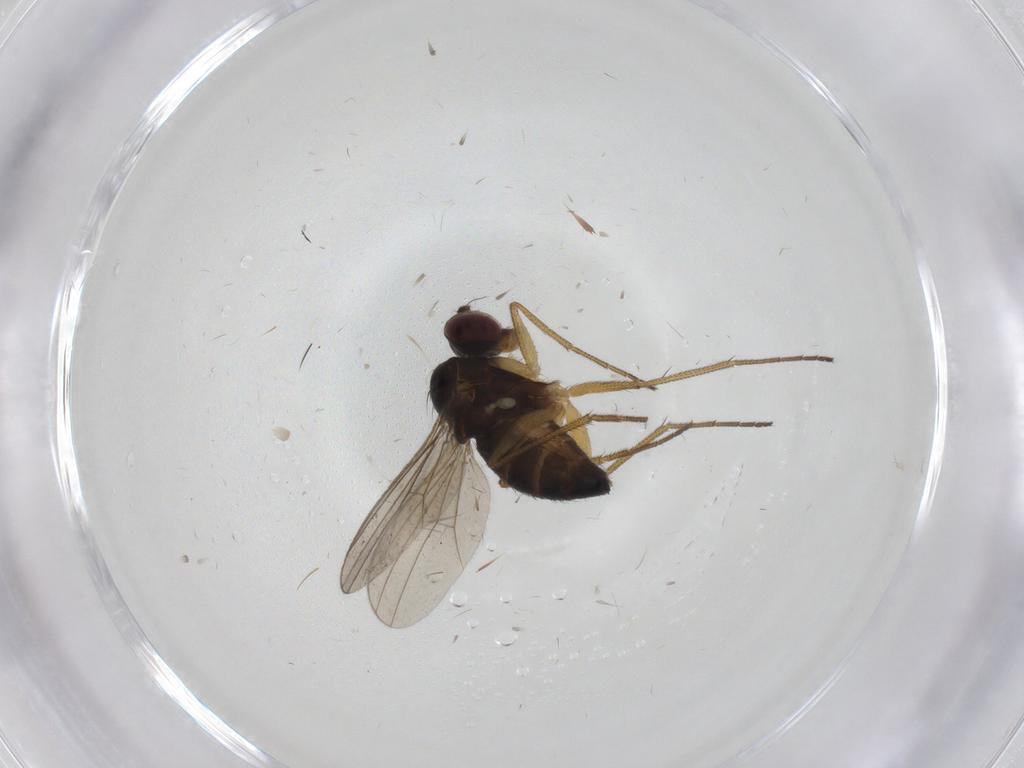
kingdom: Animalia
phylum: Arthropoda
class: Insecta
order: Diptera
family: Dolichopodidae
